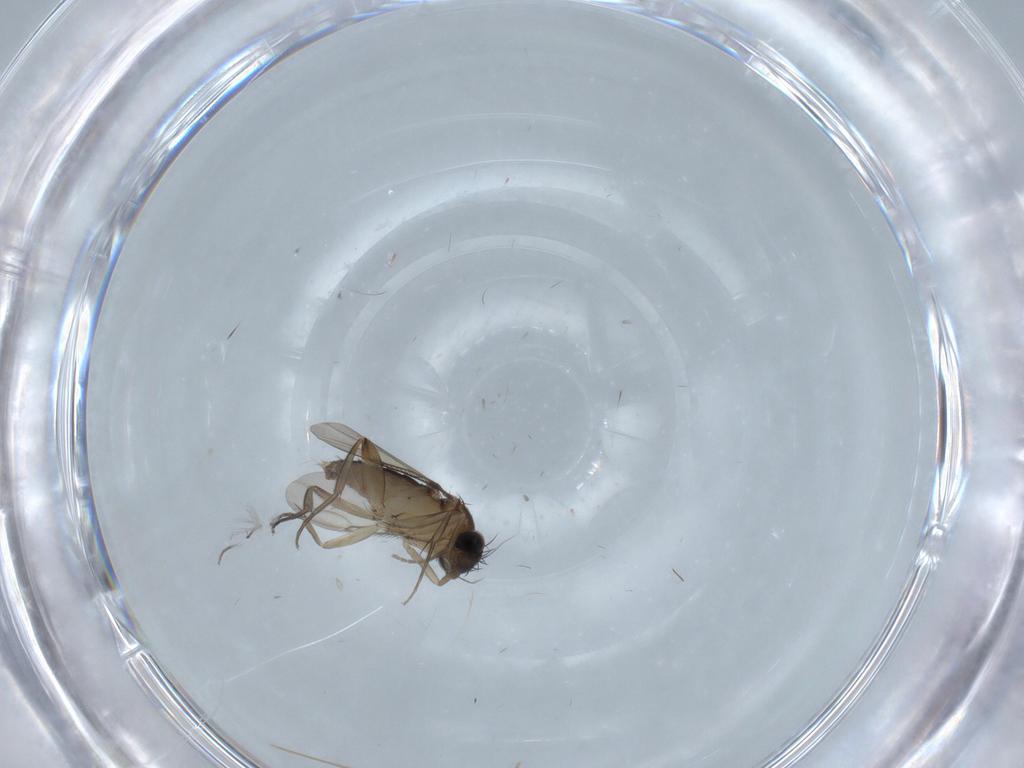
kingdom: Animalia
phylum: Arthropoda
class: Insecta
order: Diptera
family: Phoridae
